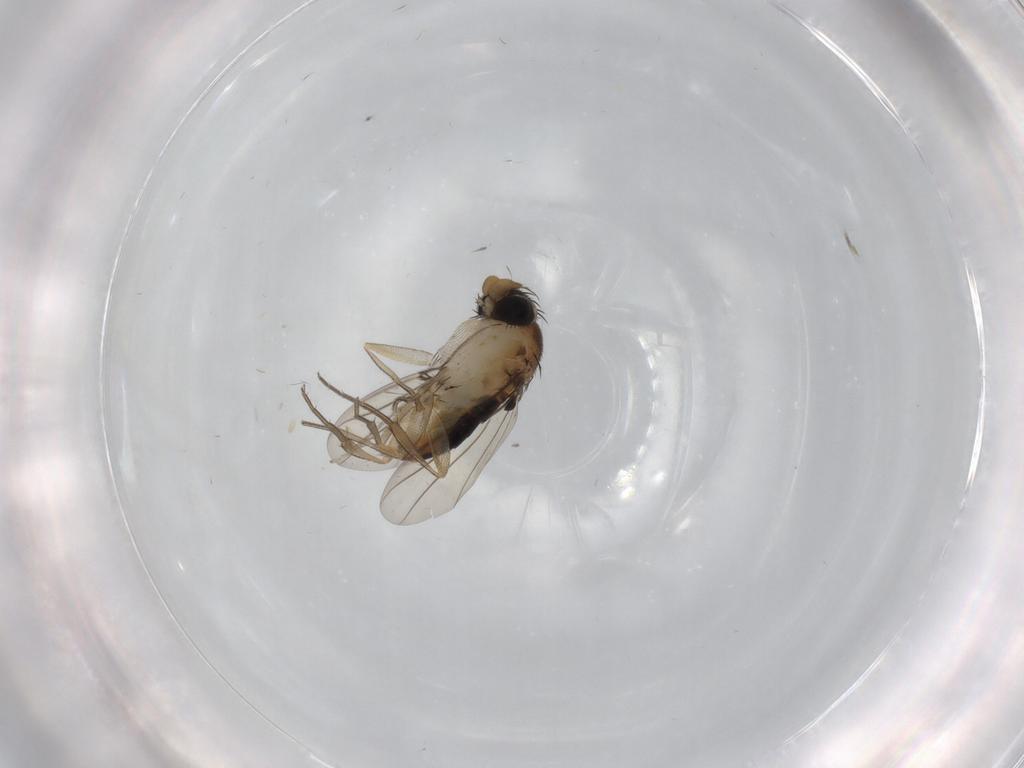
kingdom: Animalia
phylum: Arthropoda
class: Insecta
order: Diptera
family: Phoridae
